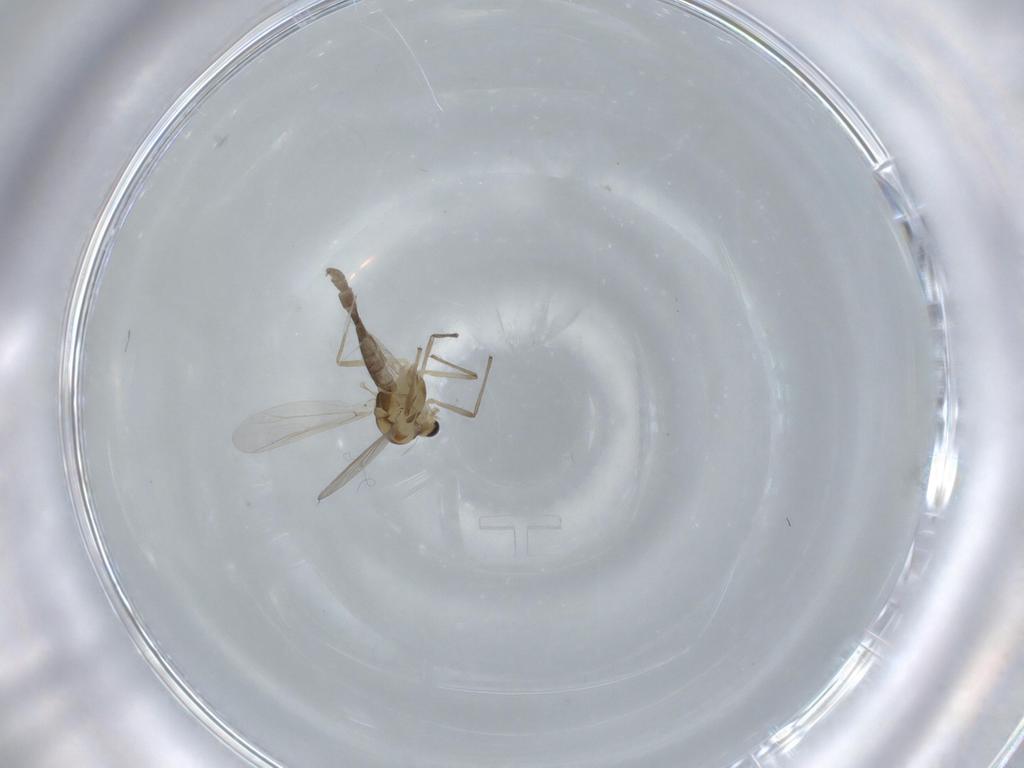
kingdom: Animalia
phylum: Arthropoda
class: Insecta
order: Diptera
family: Chironomidae
